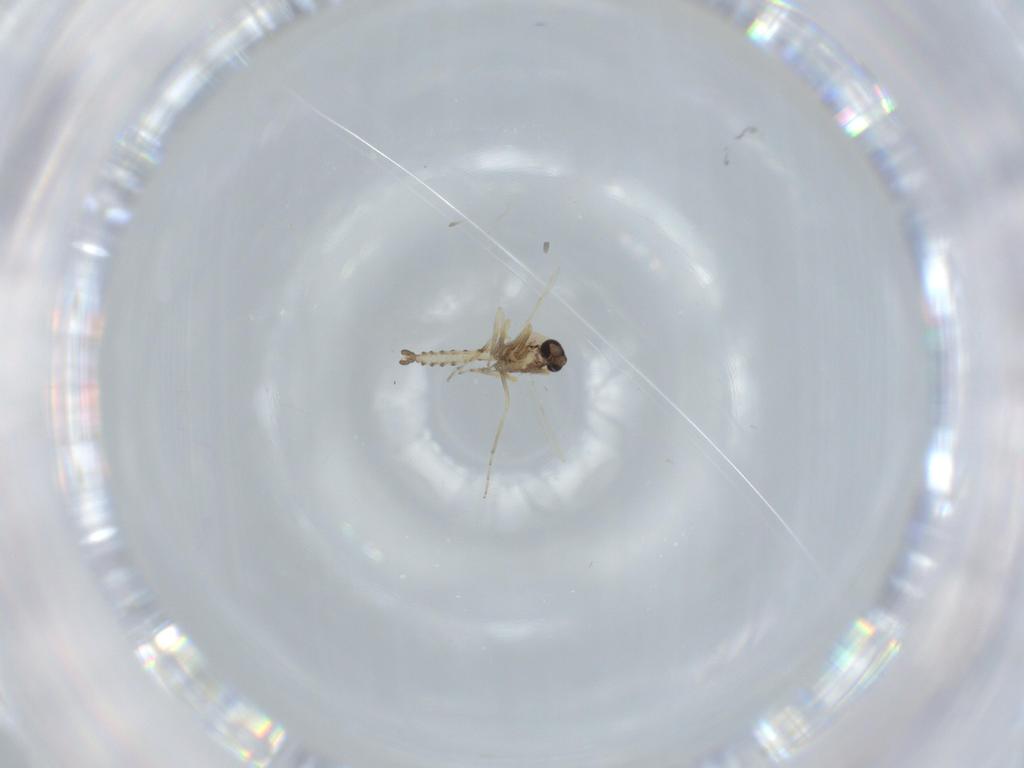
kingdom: Animalia
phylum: Arthropoda
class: Insecta
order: Diptera
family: Ceratopogonidae
